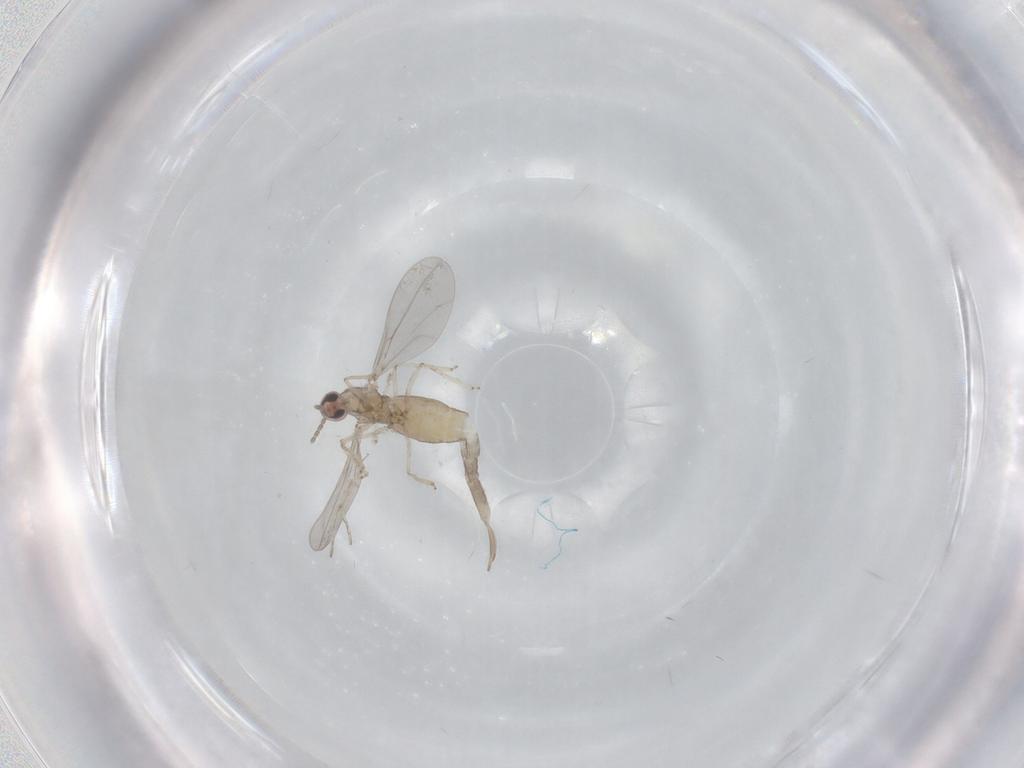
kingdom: Animalia
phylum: Arthropoda
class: Insecta
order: Diptera
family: Cecidomyiidae
